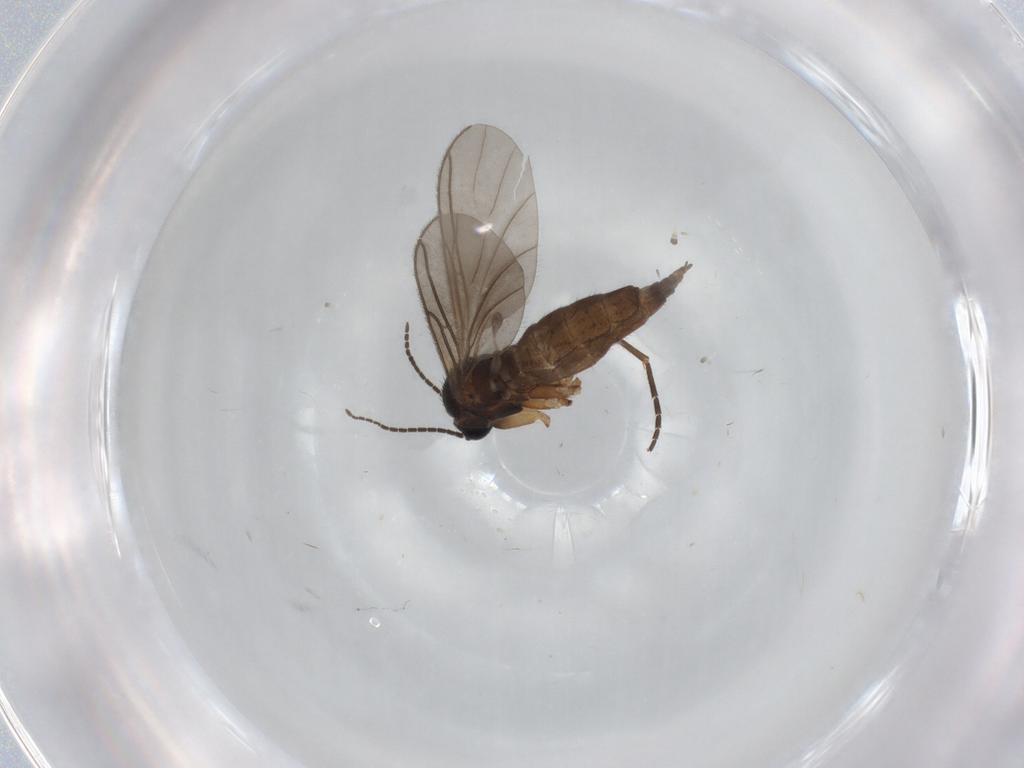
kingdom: Animalia
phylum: Arthropoda
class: Insecta
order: Diptera
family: Sciaridae
